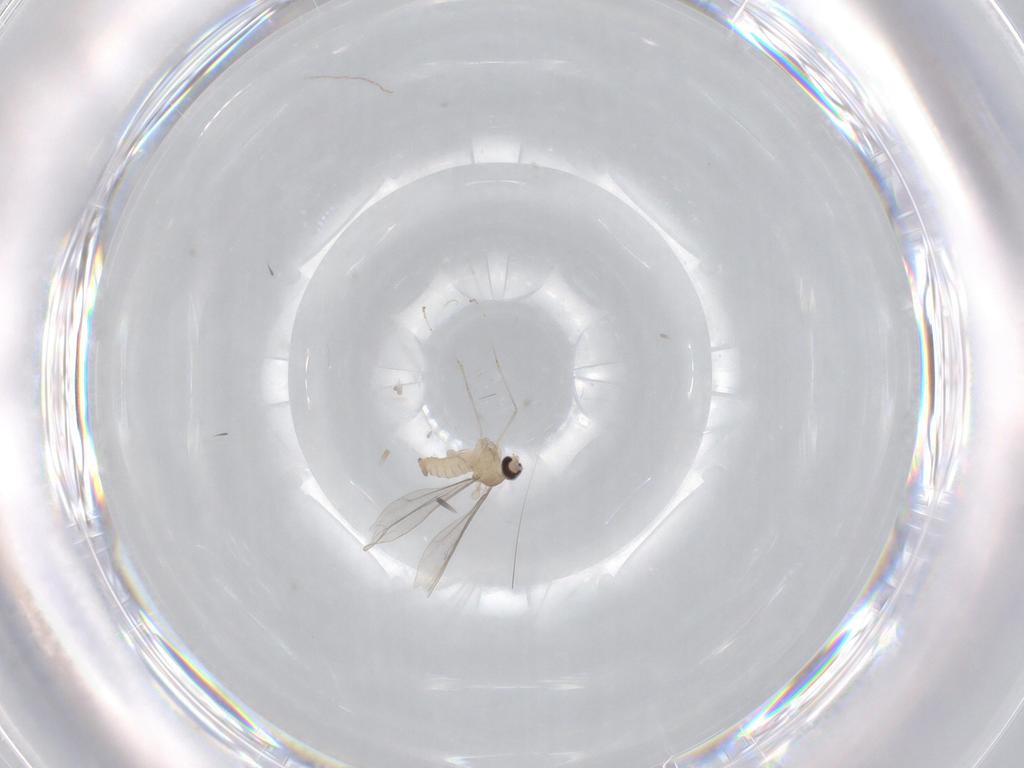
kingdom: Animalia
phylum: Arthropoda
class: Insecta
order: Diptera
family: Cecidomyiidae
